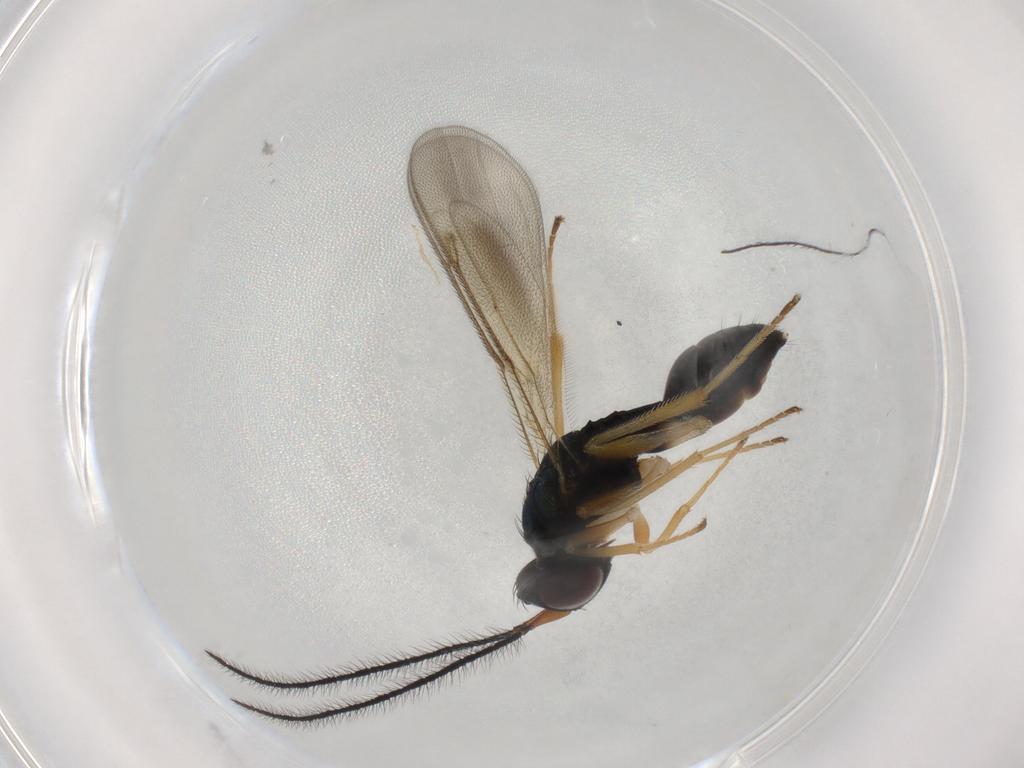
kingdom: Animalia
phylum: Arthropoda
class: Insecta
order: Hymenoptera
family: Diparidae
